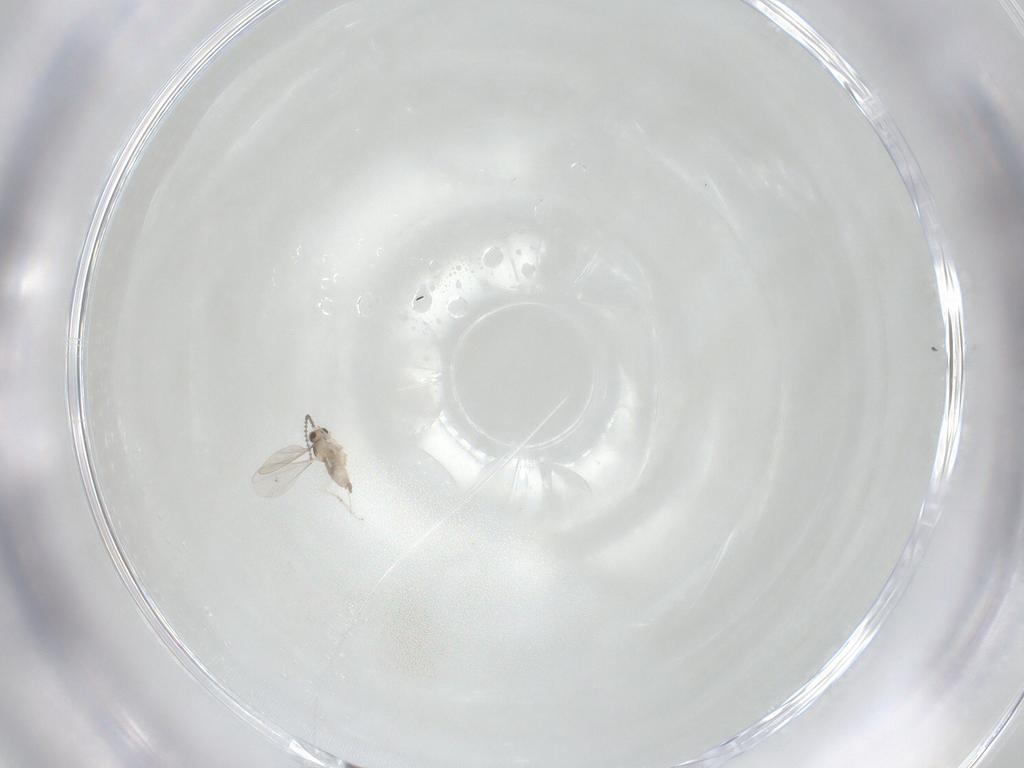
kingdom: Animalia
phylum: Arthropoda
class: Insecta
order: Diptera
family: Cecidomyiidae
